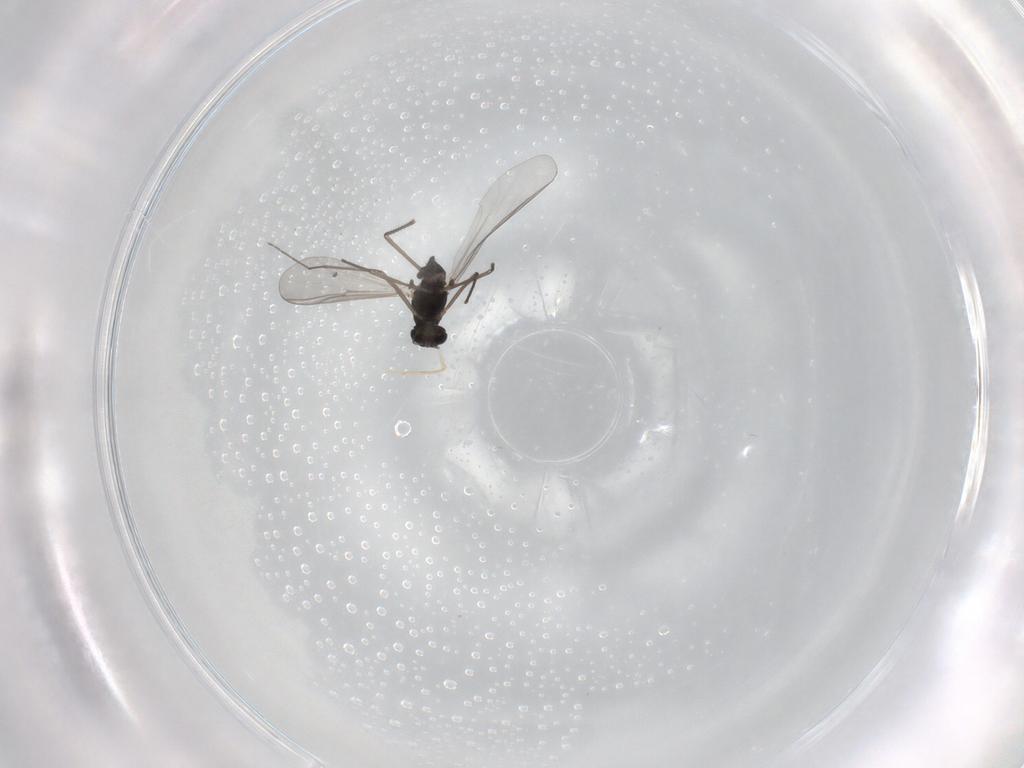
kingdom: Animalia
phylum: Arthropoda
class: Insecta
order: Diptera
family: Chironomidae
